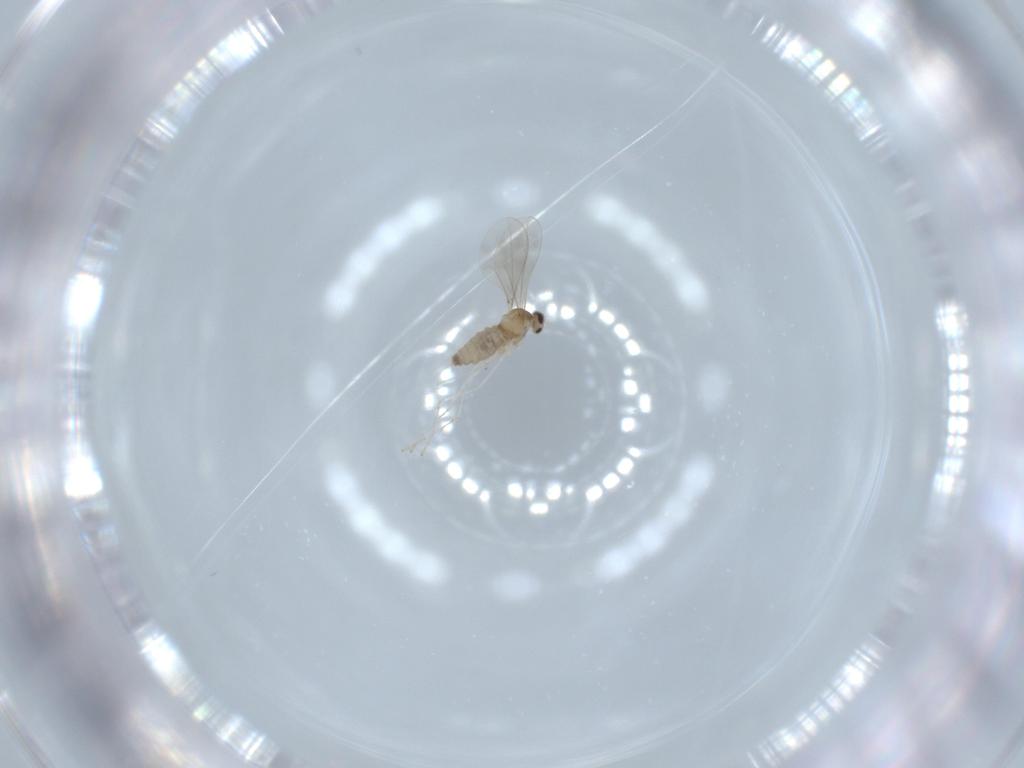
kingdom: Animalia
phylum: Arthropoda
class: Insecta
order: Diptera
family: Cecidomyiidae
